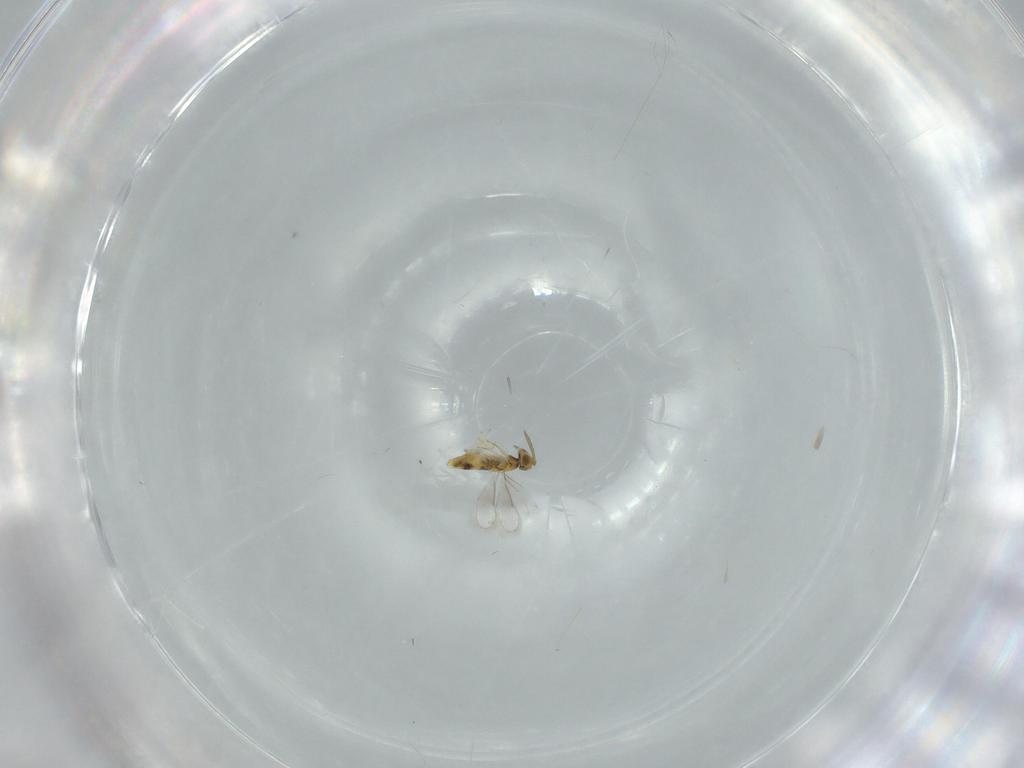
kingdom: Animalia
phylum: Arthropoda
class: Insecta
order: Hymenoptera
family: Aphelinidae
